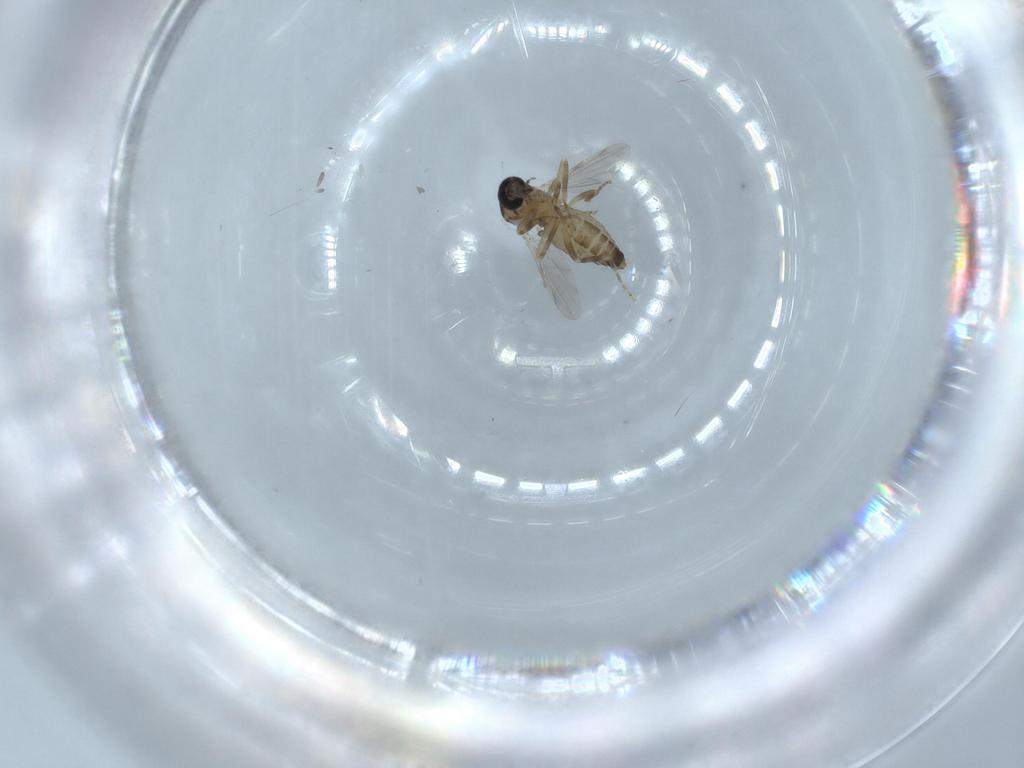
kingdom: Animalia
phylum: Arthropoda
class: Insecta
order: Diptera
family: Ceratopogonidae
